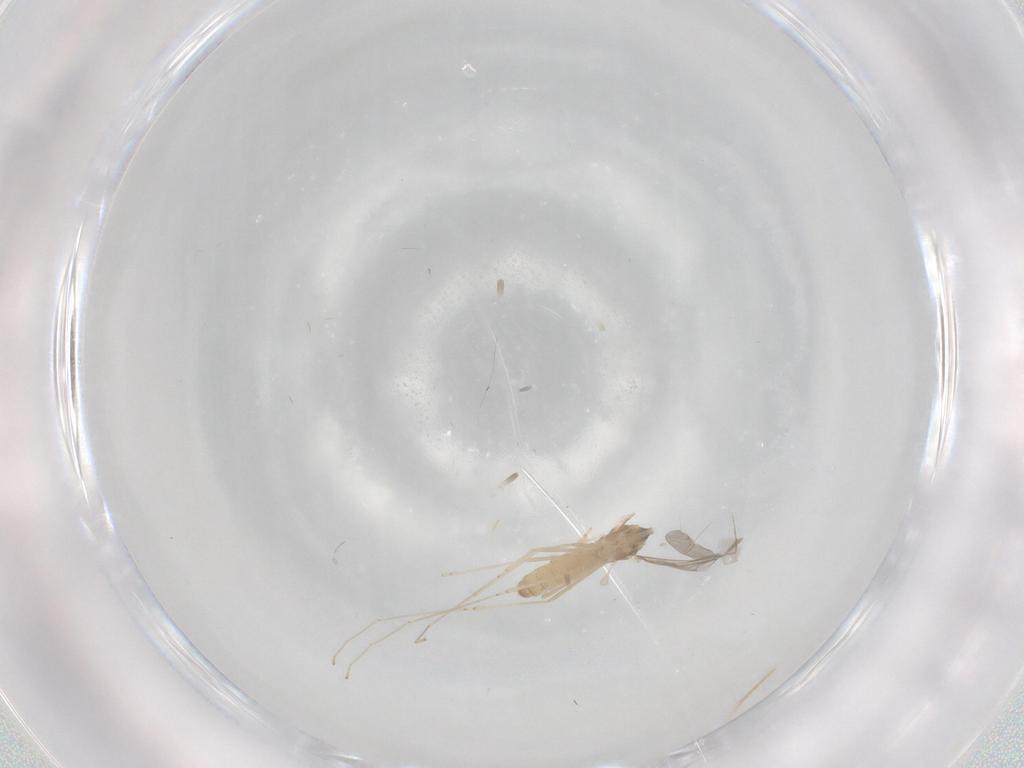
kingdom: Animalia
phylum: Arthropoda
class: Insecta
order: Diptera
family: Cecidomyiidae
